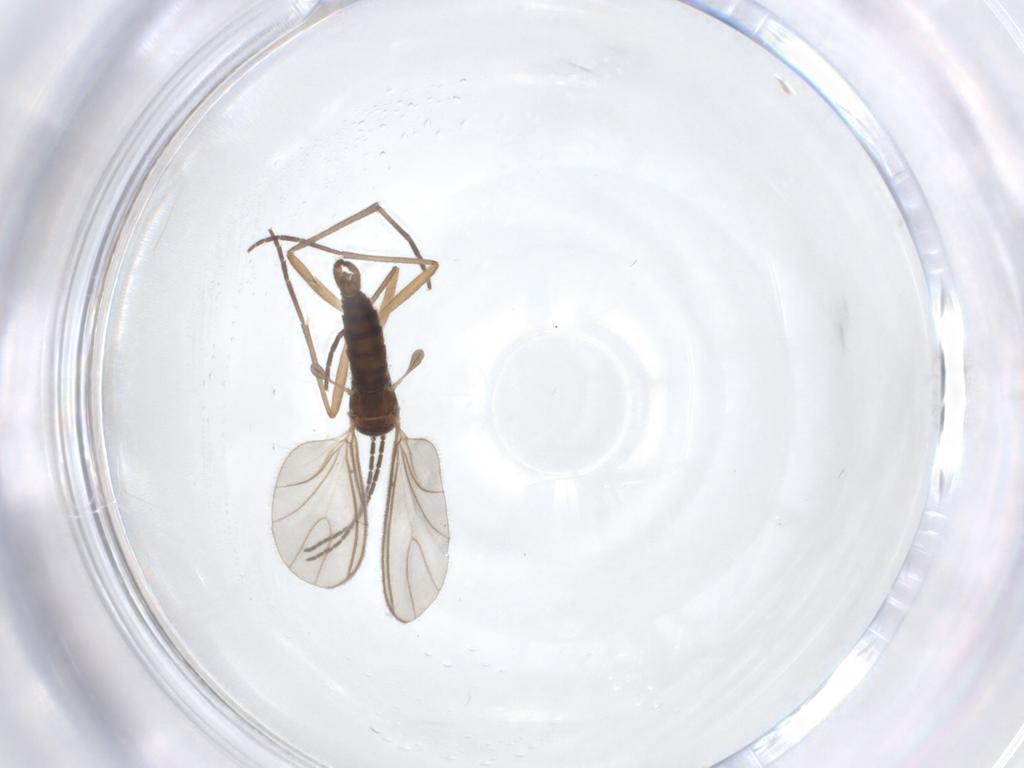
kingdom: Animalia
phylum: Arthropoda
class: Insecta
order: Diptera
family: Sciaridae
